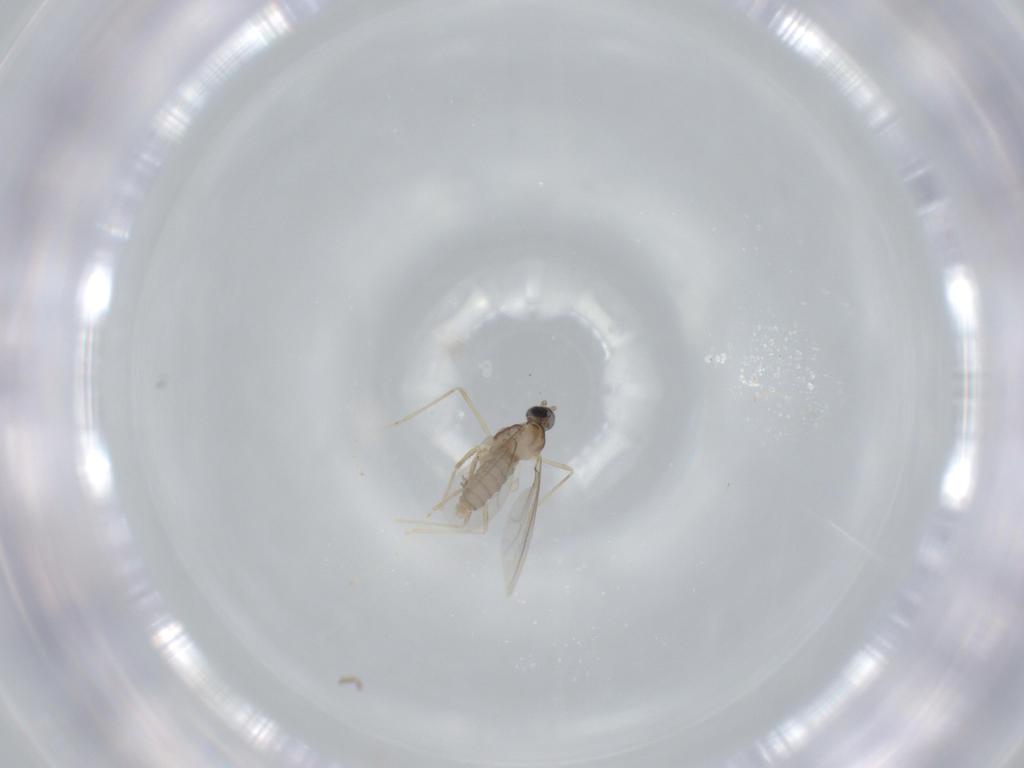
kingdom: Animalia
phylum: Arthropoda
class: Insecta
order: Diptera
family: Cecidomyiidae
